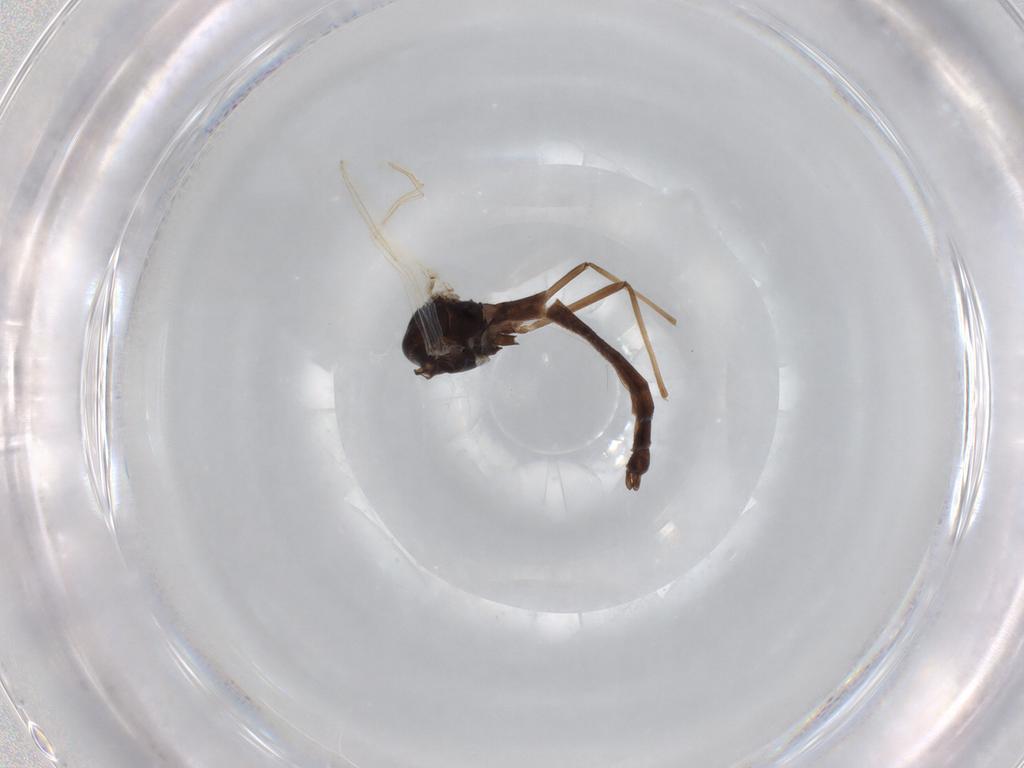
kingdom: Animalia
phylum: Arthropoda
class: Insecta
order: Diptera
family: Chironomidae
